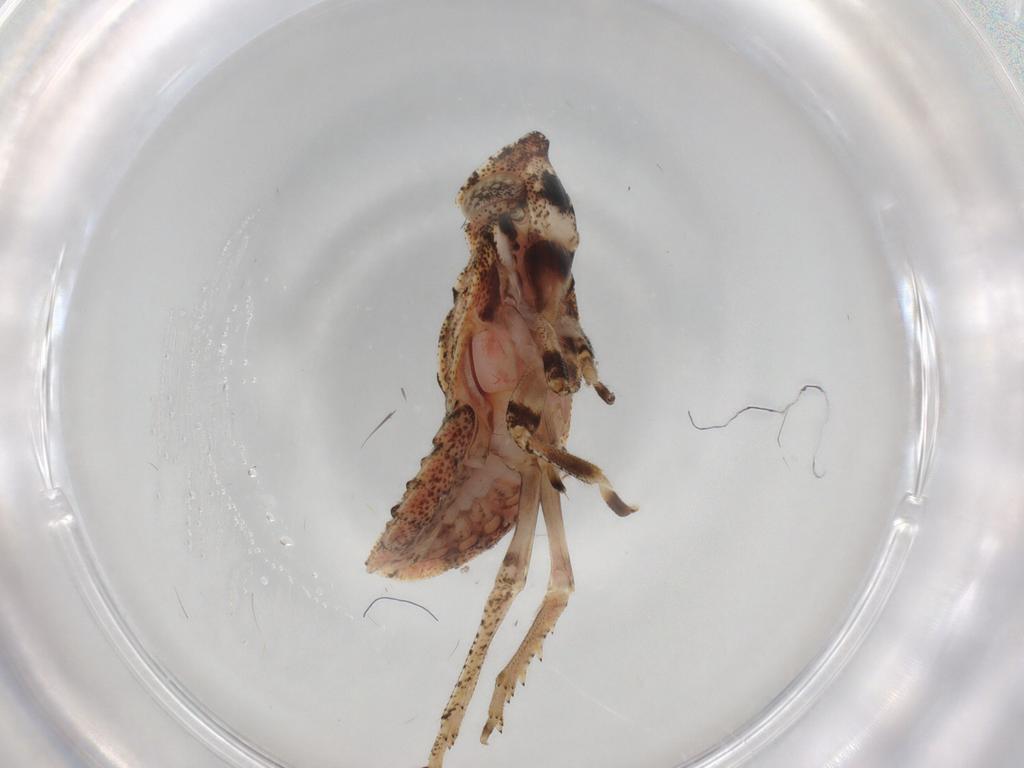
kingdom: Animalia
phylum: Arthropoda
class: Insecta
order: Hemiptera
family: Gengidae
